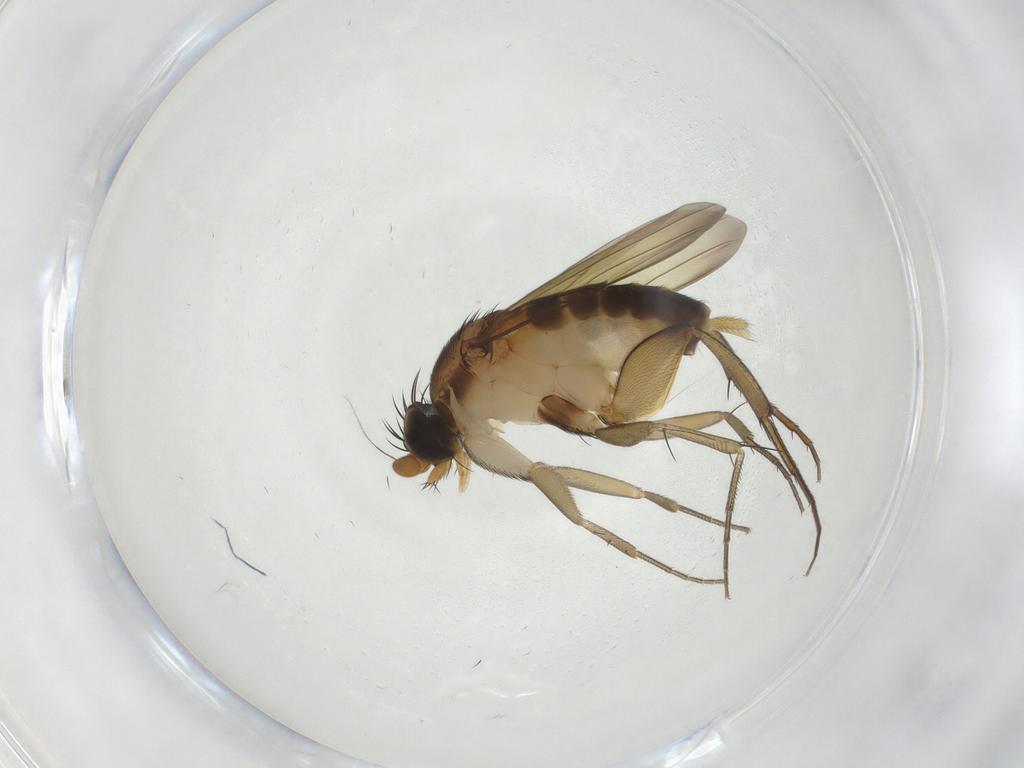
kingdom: Animalia
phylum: Arthropoda
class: Insecta
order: Diptera
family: Phoridae
